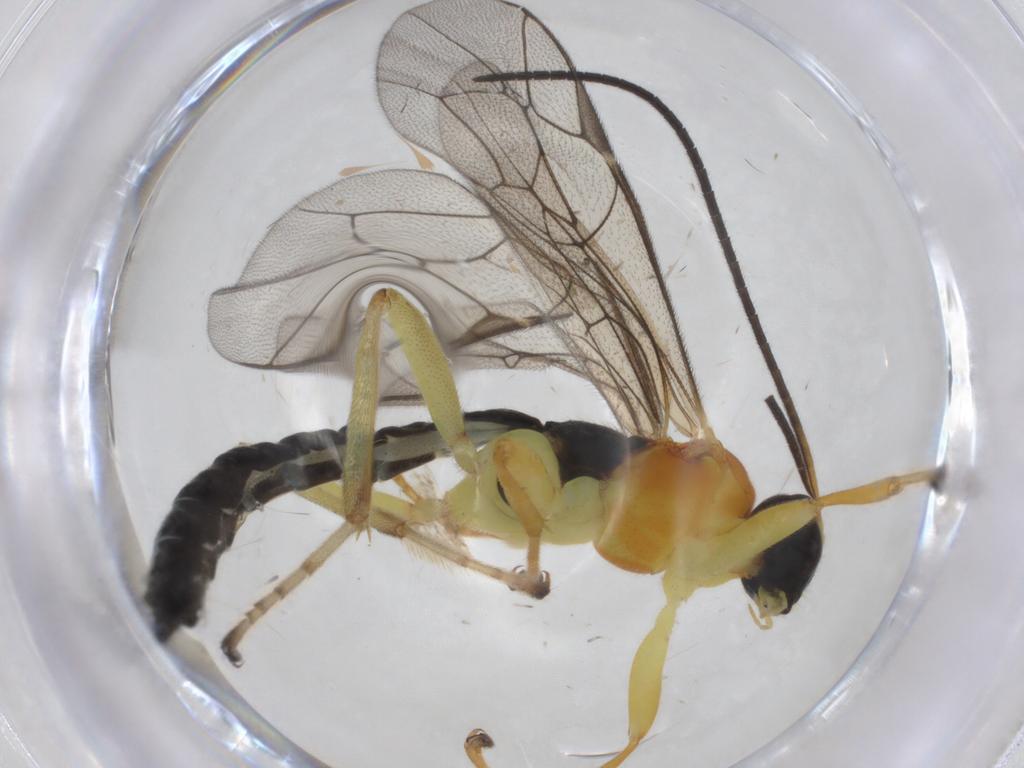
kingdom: Animalia
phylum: Arthropoda
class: Insecta
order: Hymenoptera
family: Ichneumonidae
